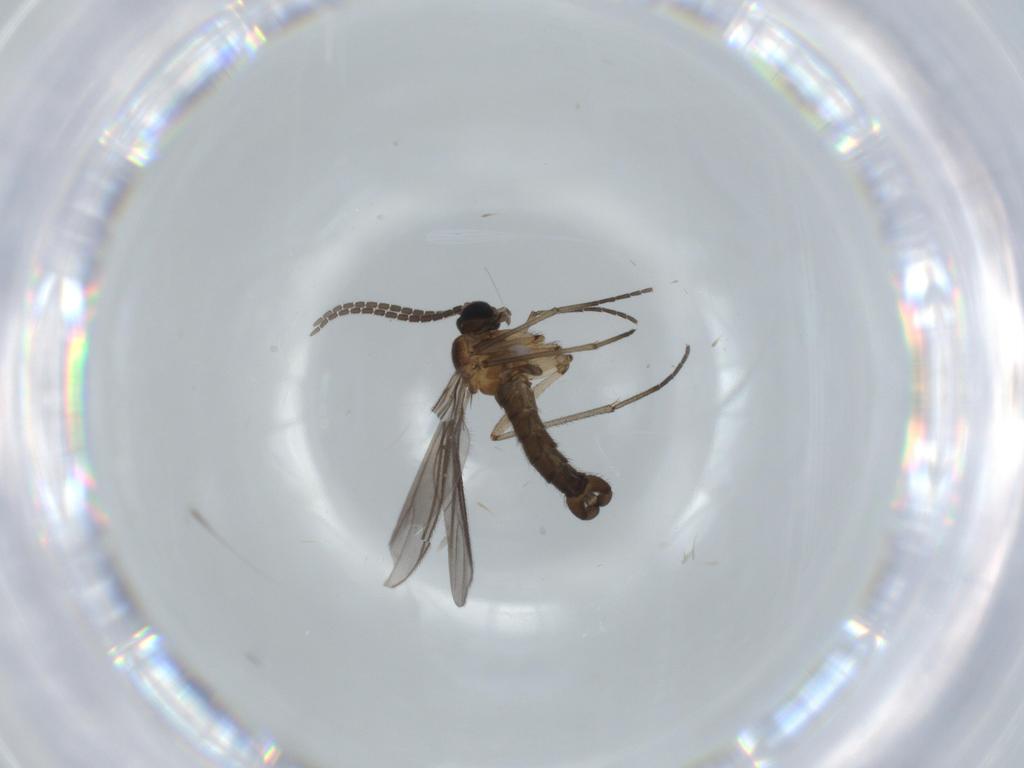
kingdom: Animalia
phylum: Arthropoda
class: Insecta
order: Diptera
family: Sciaridae
